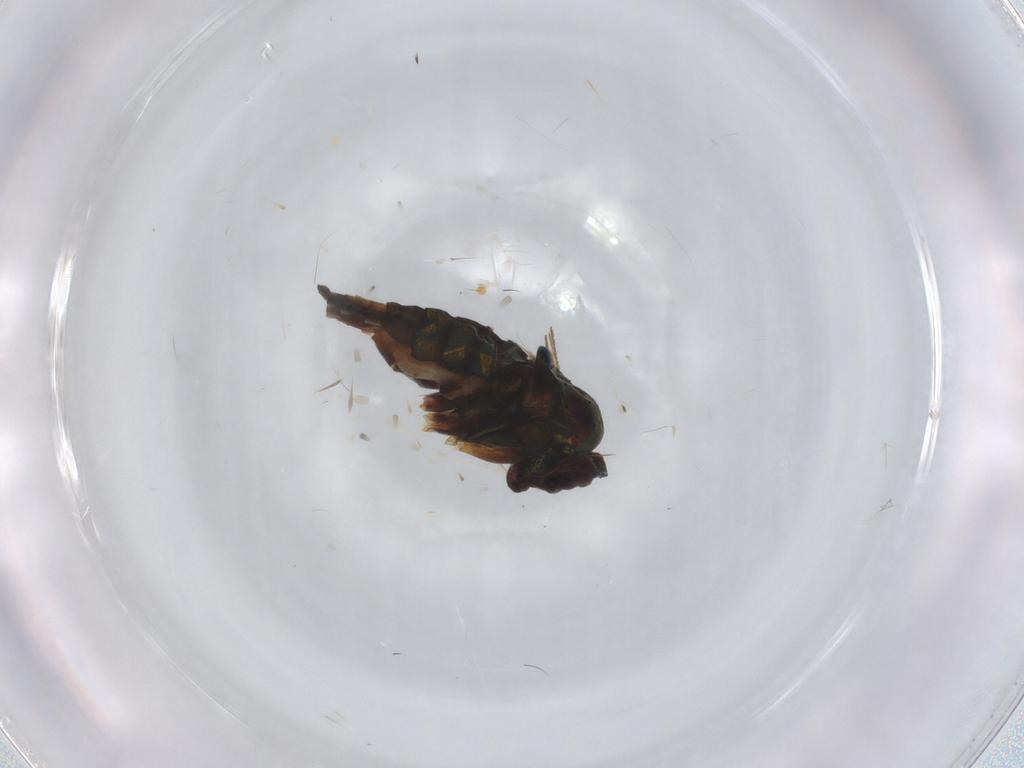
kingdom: Animalia
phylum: Arthropoda
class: Insecta
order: Diptera
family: Dolichopodidae
